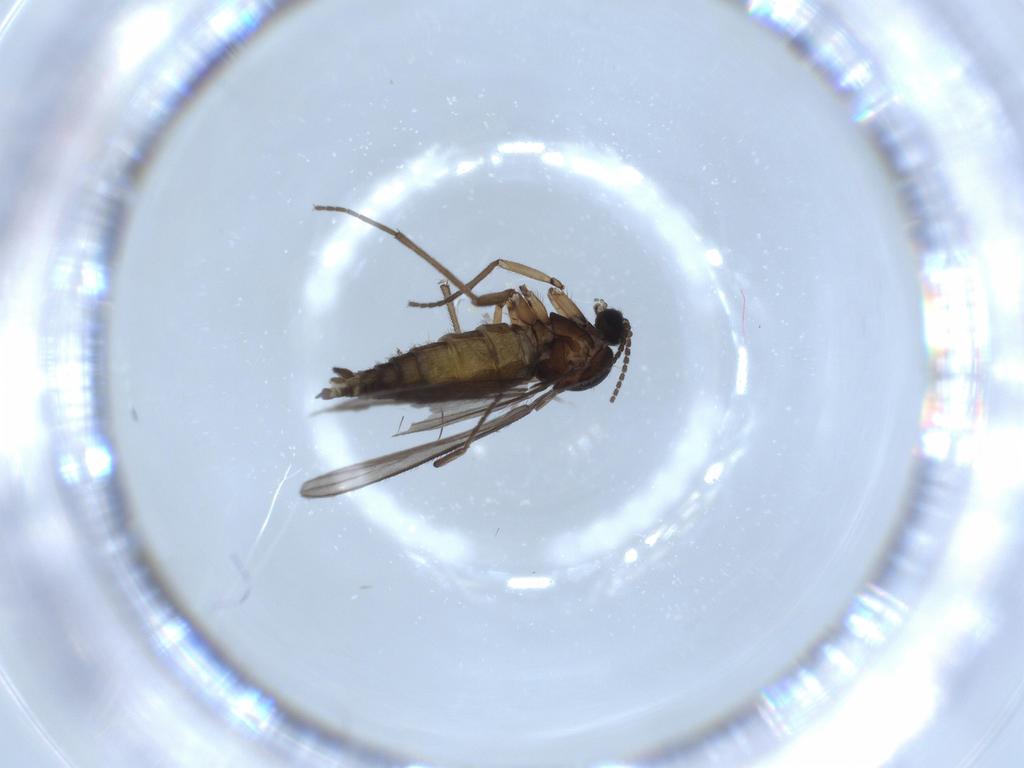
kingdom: Animalia
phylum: Arthropoda
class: Insecta
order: Diptera
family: Sciaridae
